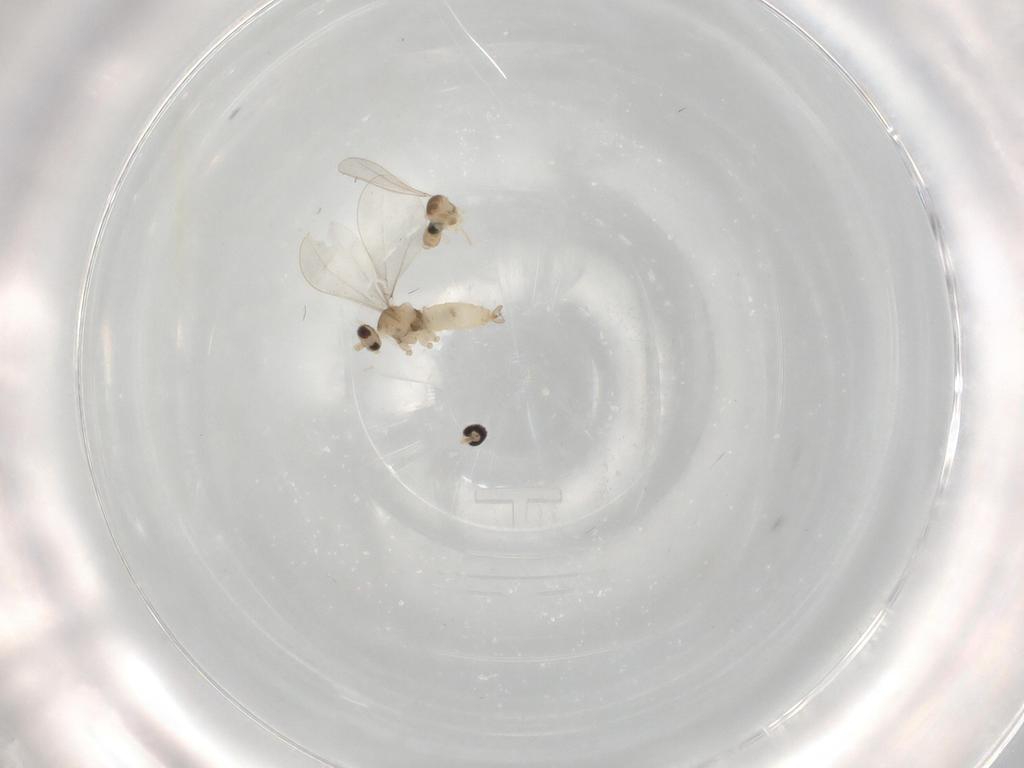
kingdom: Animalia
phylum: Arthropoda
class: Insecta
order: Diptera
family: Cecidomyiidae
